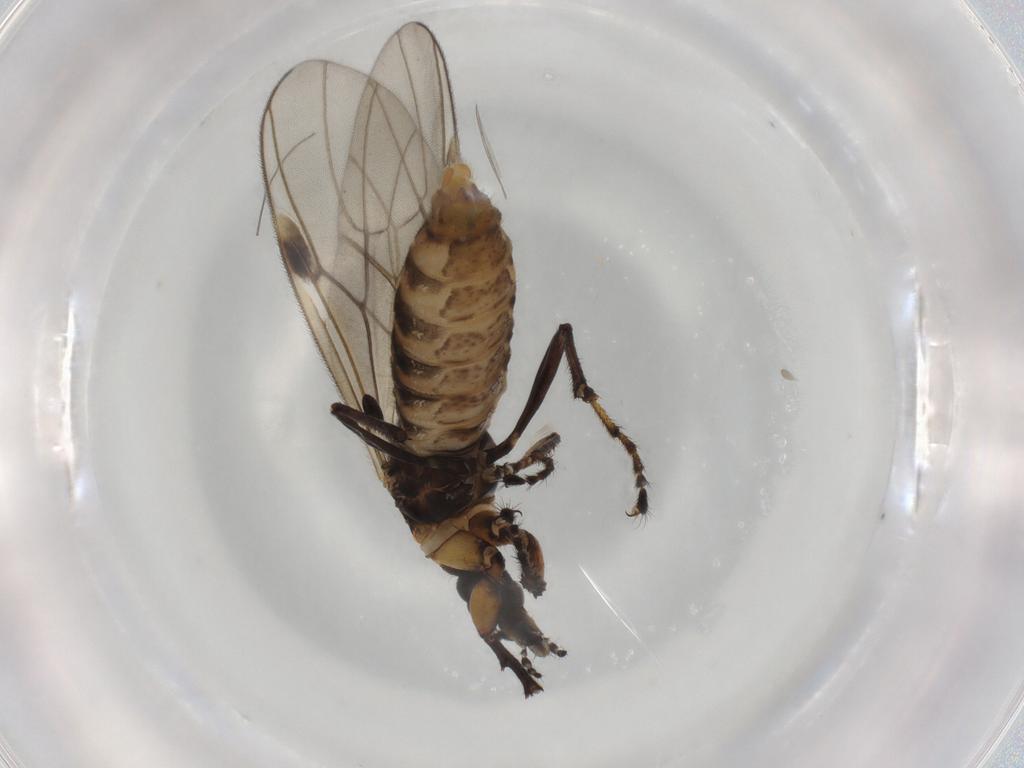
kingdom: Animalia
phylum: Arthropoda
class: Insecta
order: Diptera
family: Bibionidae
